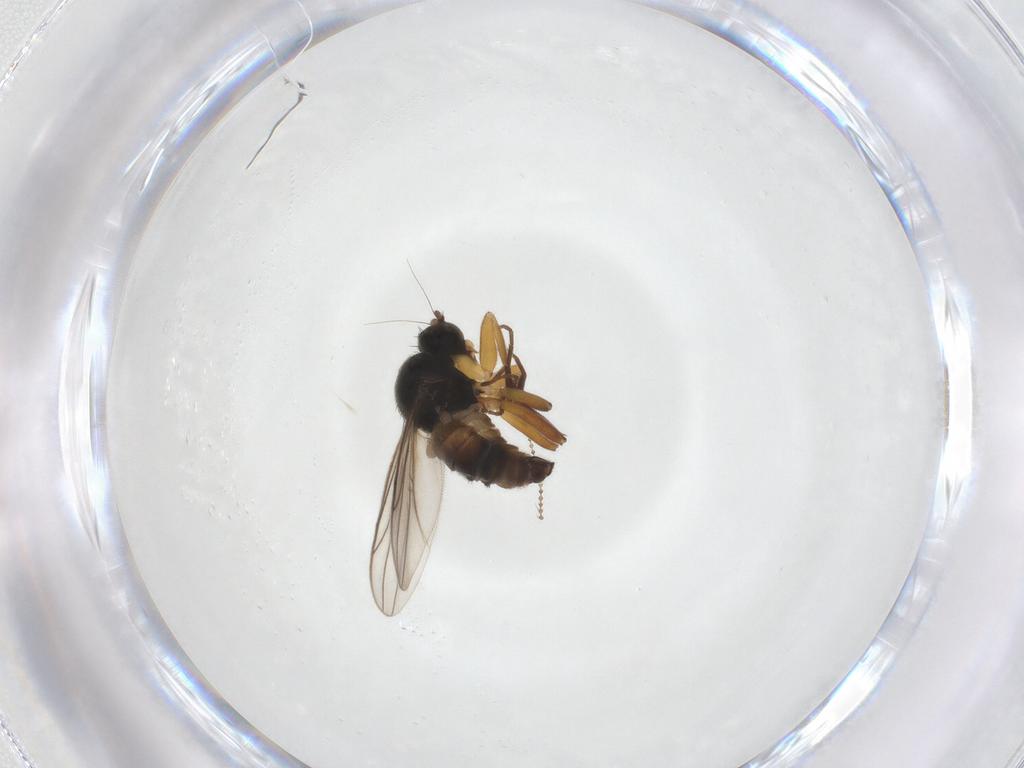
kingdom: Animalia
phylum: Arthropoda
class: Insecta
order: Diptera
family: Hybotidae
